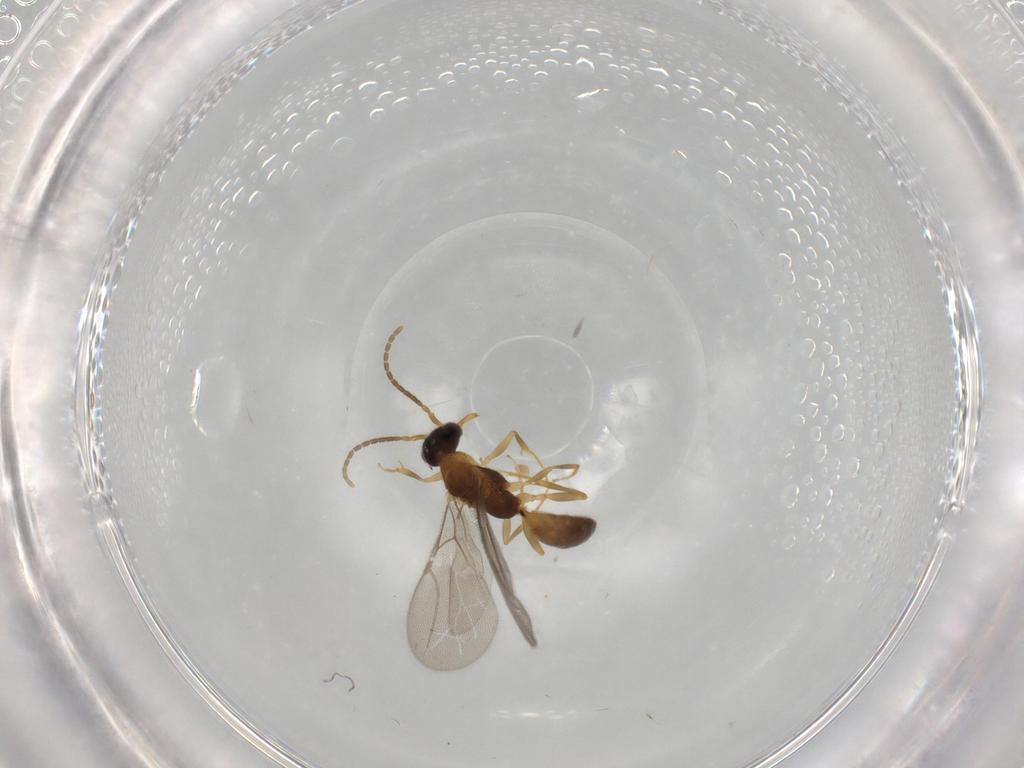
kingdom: Animalia
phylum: Arthropoda
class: Insecta
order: Hymenoptera
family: Bethylidae
